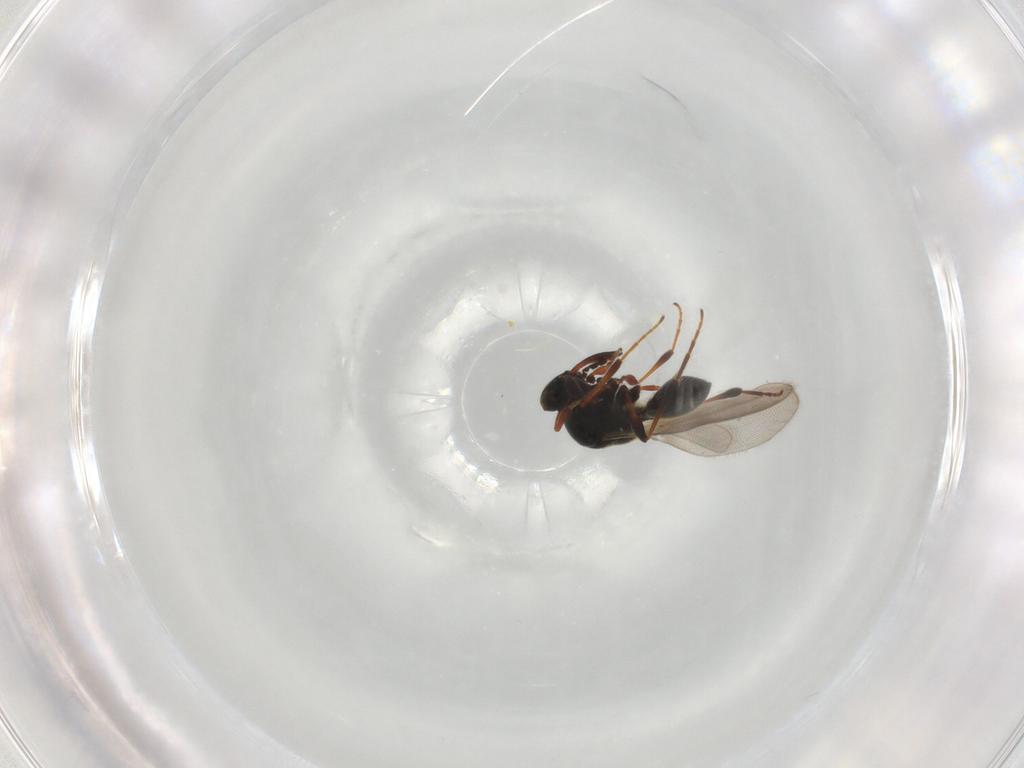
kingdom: Animalia
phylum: Arthropoda
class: Insecta
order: Hymenoptera
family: Platygastridae
